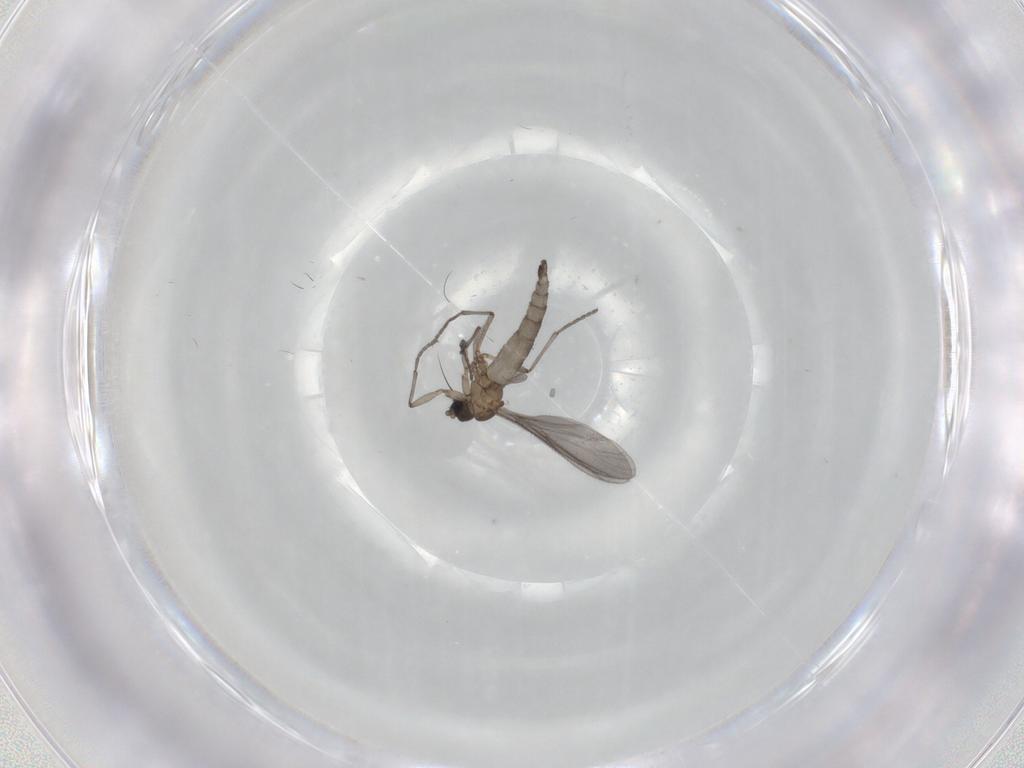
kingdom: Animalia
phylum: Arthropoda
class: Insecta
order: Diptera
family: Sciaridae
